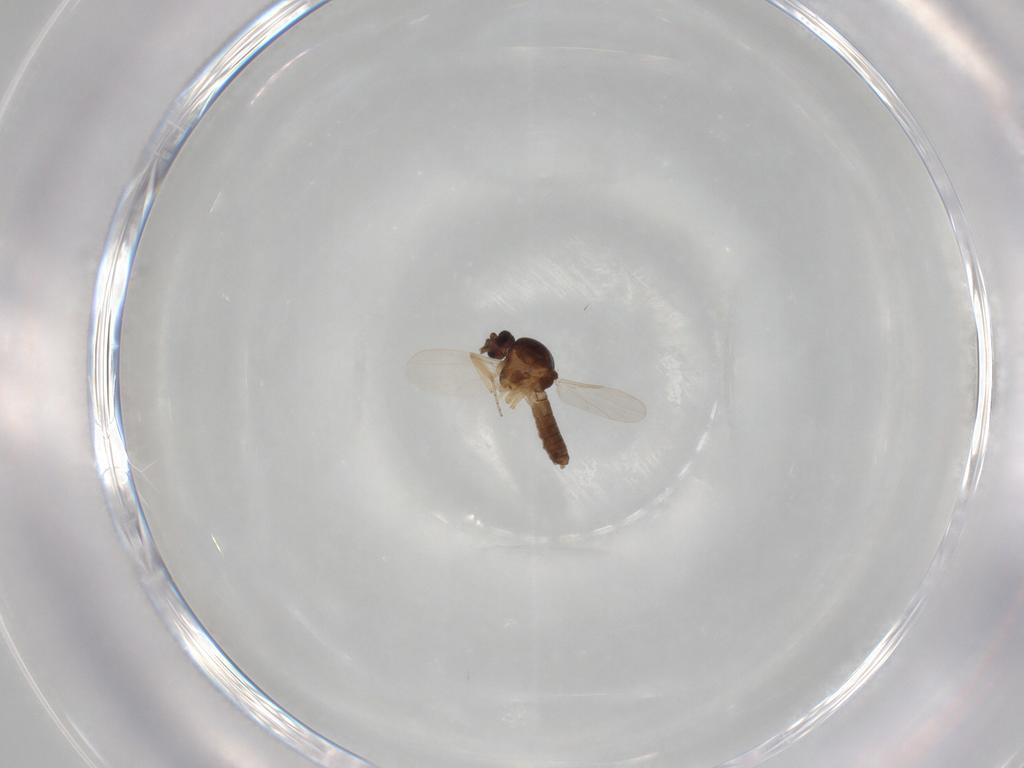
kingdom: Animalia
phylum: Arthropoda
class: Insecta
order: Diptera
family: Ceratopogonidae
